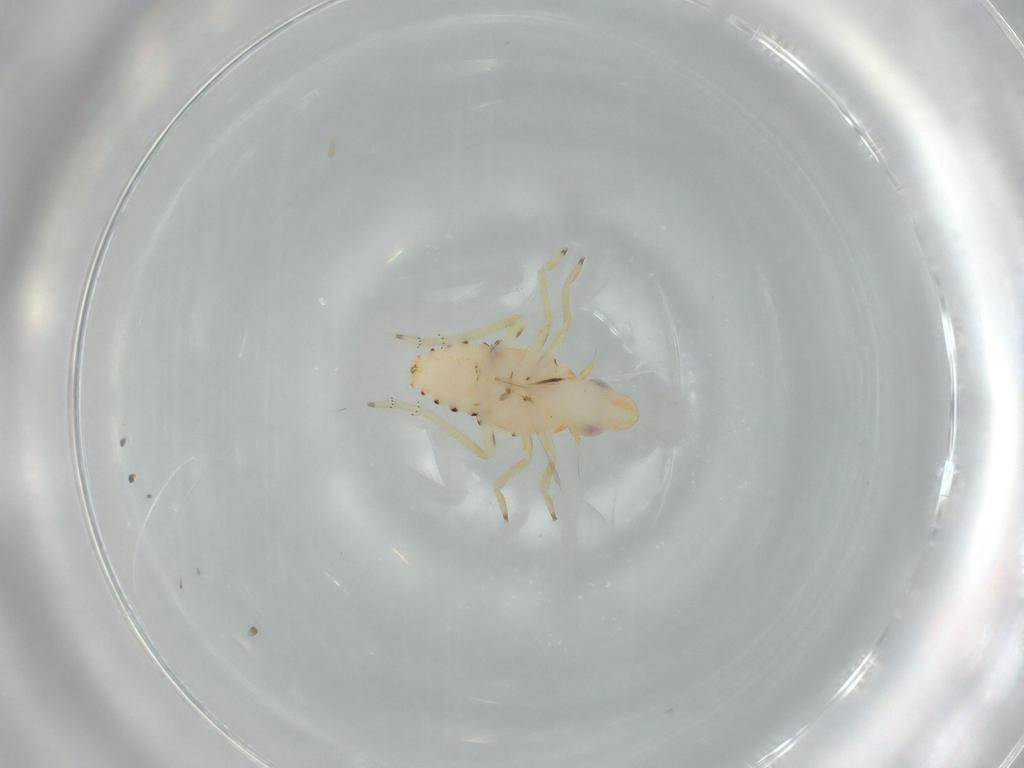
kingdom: Animalia
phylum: Arthropoda
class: Insecta
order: Hemiptera
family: Tropiduchidae
